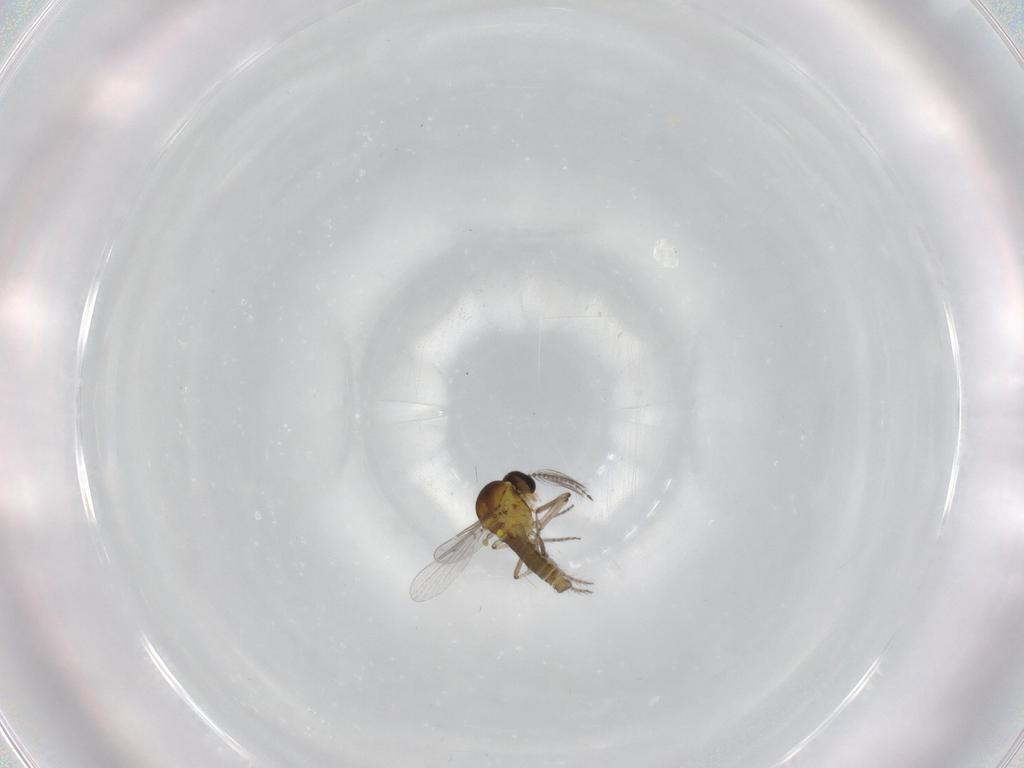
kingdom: Animalia
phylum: Arthropoda
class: Insecta
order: Diptera
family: Ceratopogonidae
